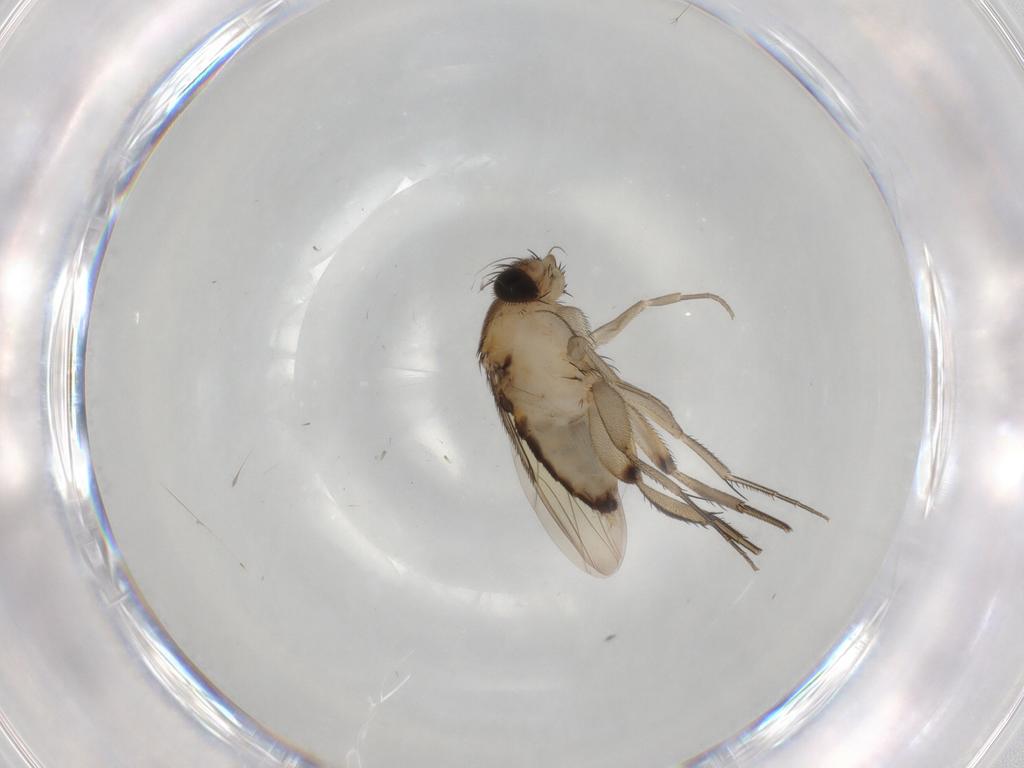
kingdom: Animalia
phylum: Arthropoda
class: Insecta
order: Diptera
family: Phoridae
